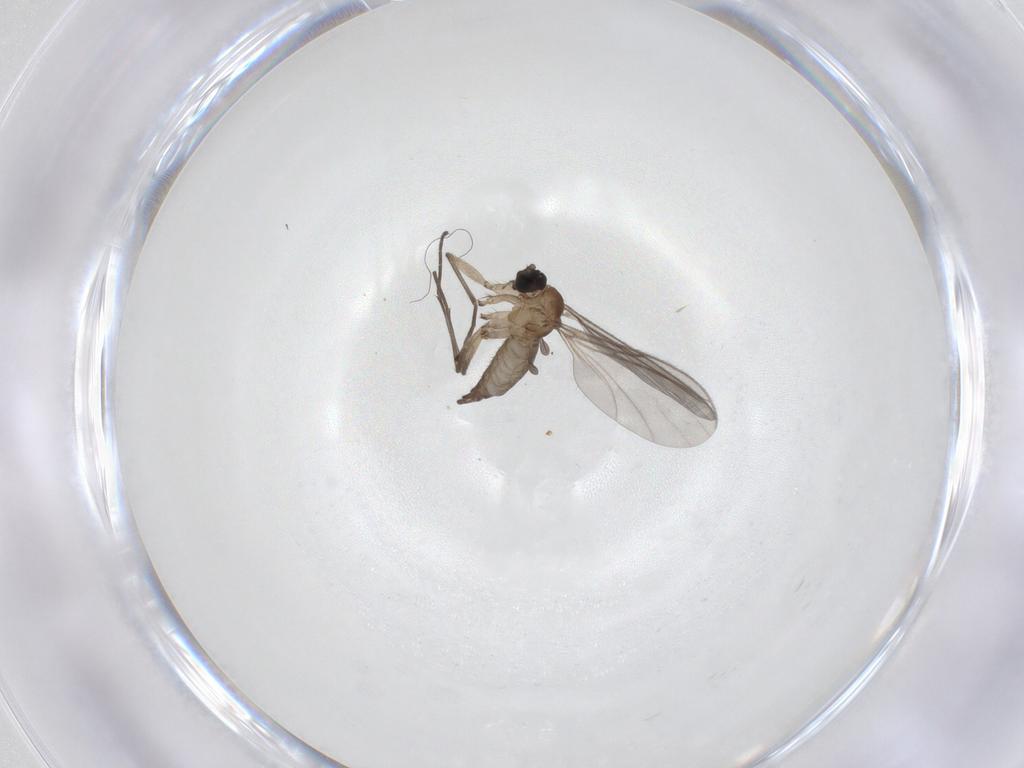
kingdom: Animalia
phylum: Arthropoda
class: Insecta
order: Diptera
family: Sciaridae
